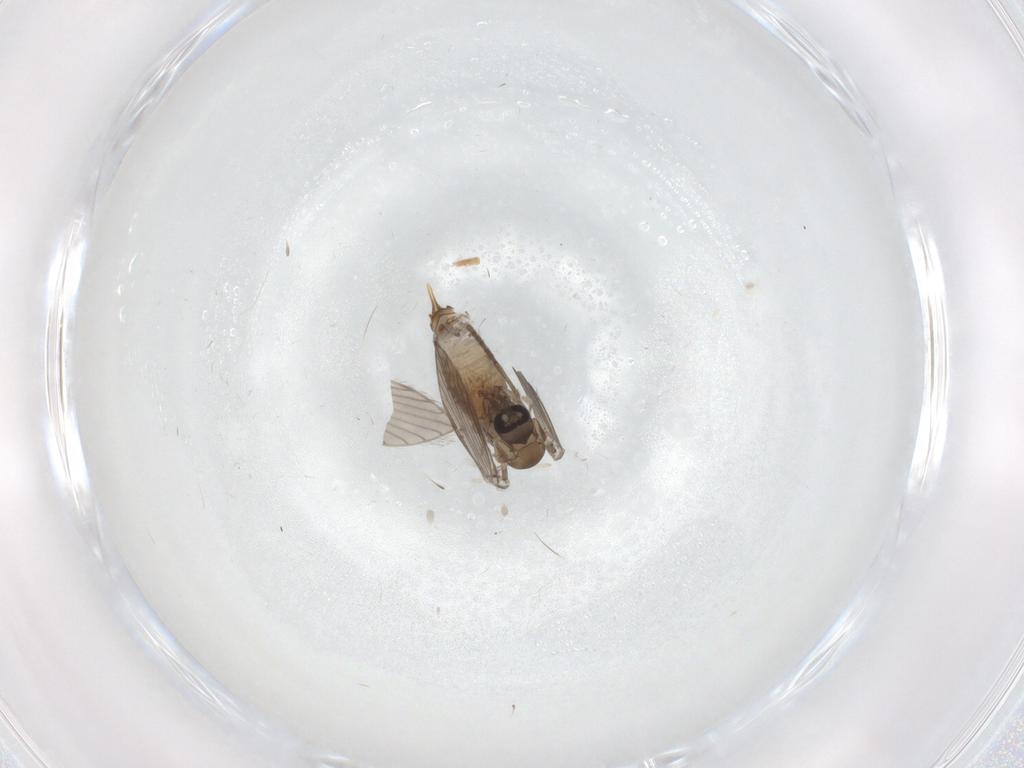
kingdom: Animalia
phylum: Arthropoda
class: Insecta
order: Diptera
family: Psychodidae
